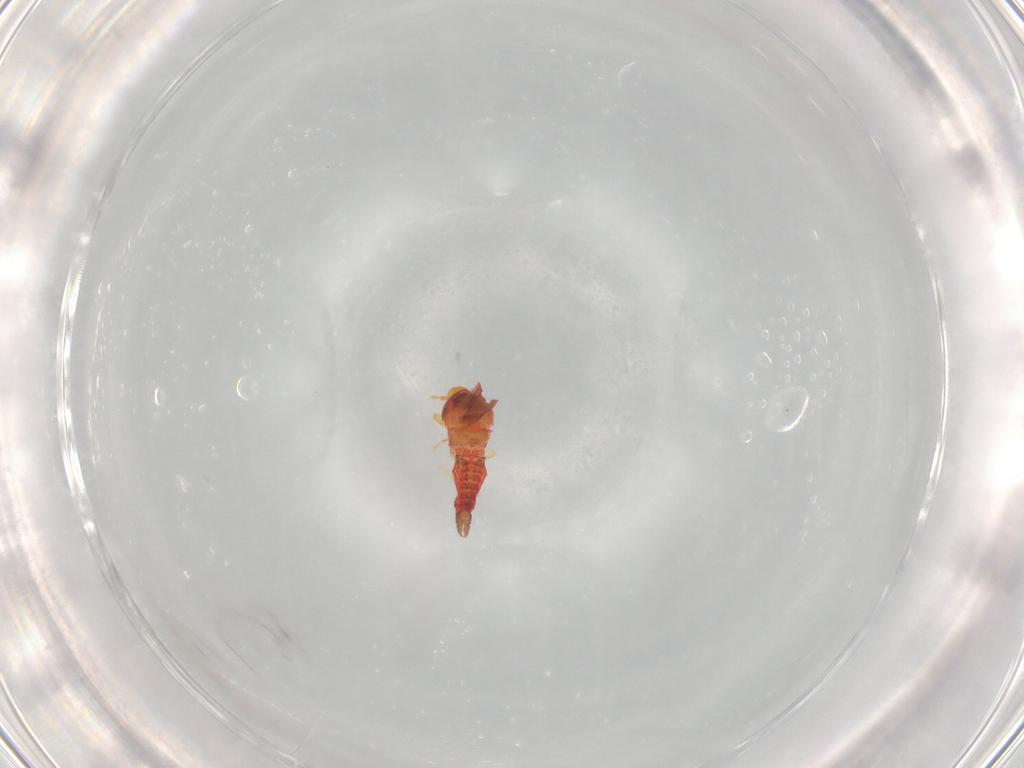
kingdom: Animalia
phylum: Arthropoda
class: Insecta
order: Hemiptera
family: Aleyrodidae
